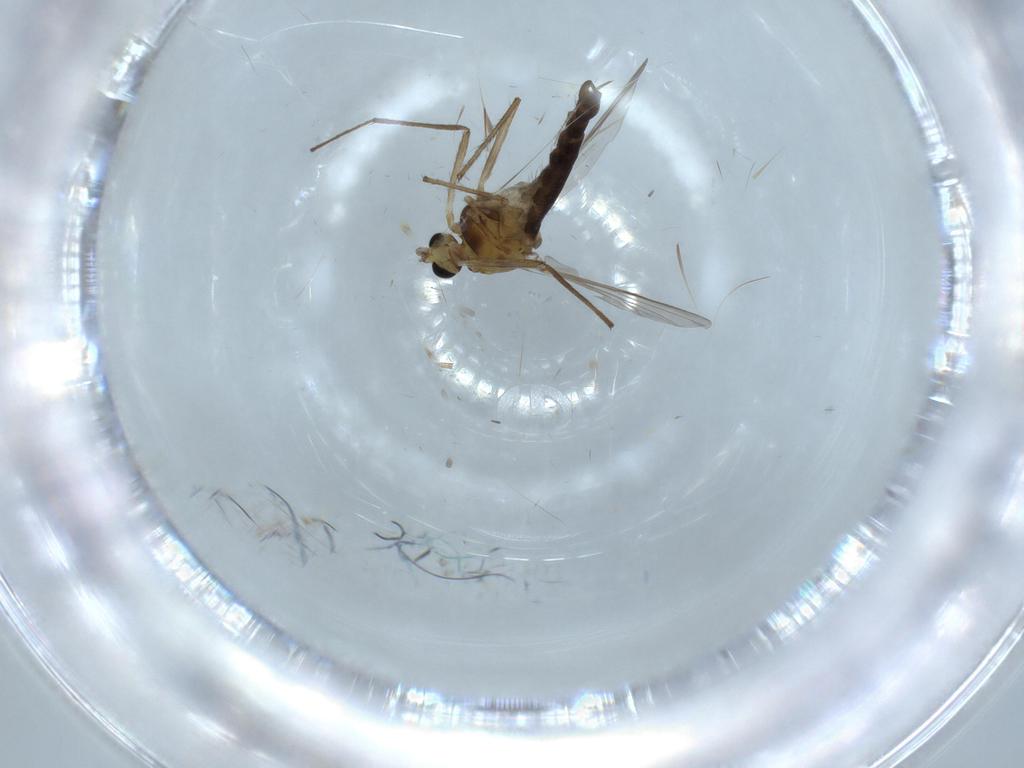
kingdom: Animalia
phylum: Arthropoda
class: Insecta
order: Diptera
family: Chironomidae
